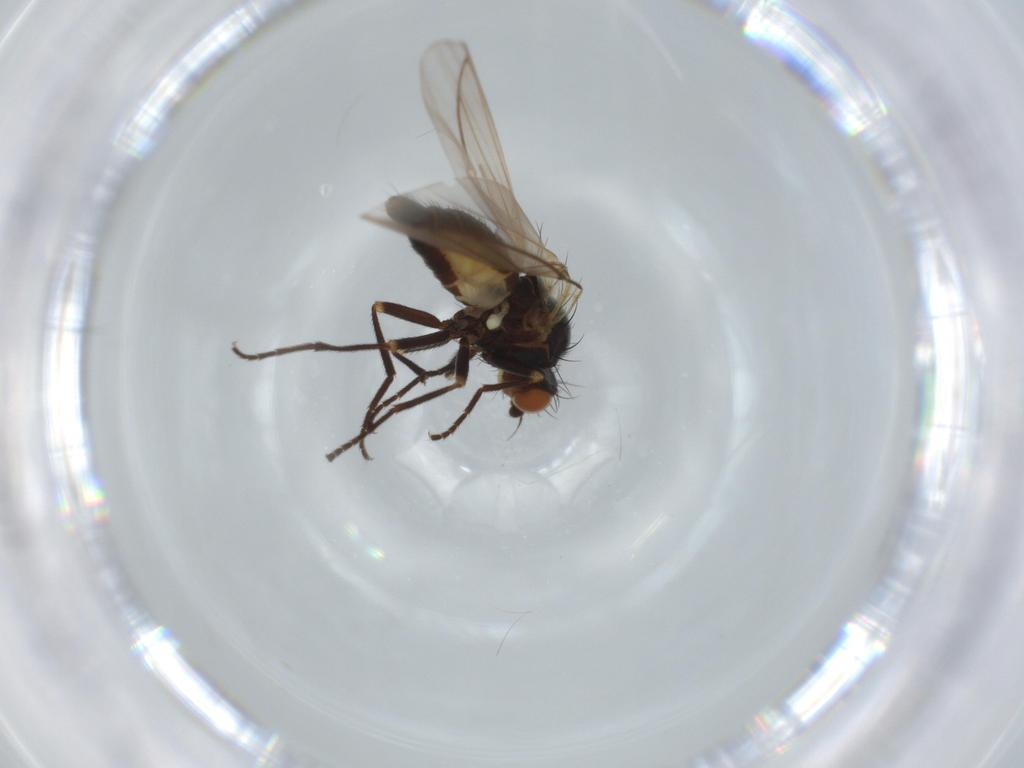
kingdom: Animalia
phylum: Arthropoda
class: Insecta
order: Diptera
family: Agromyzidae
